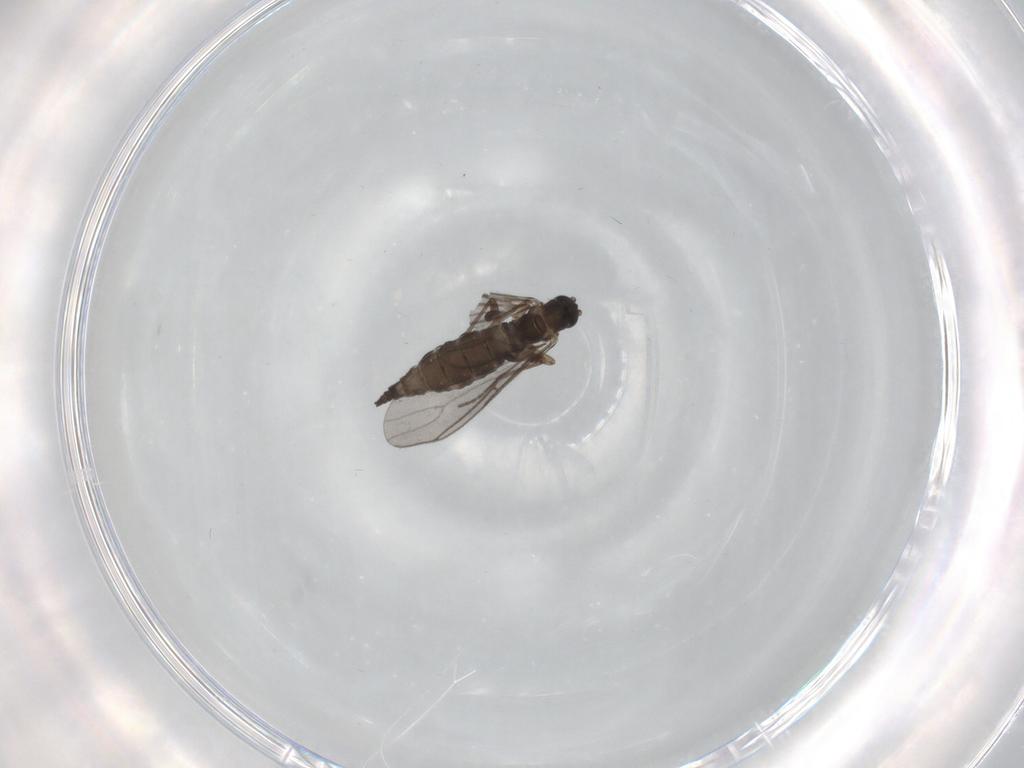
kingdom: Animalia
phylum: Arthropoda
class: Insecta
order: Diptera
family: Sciaridae
